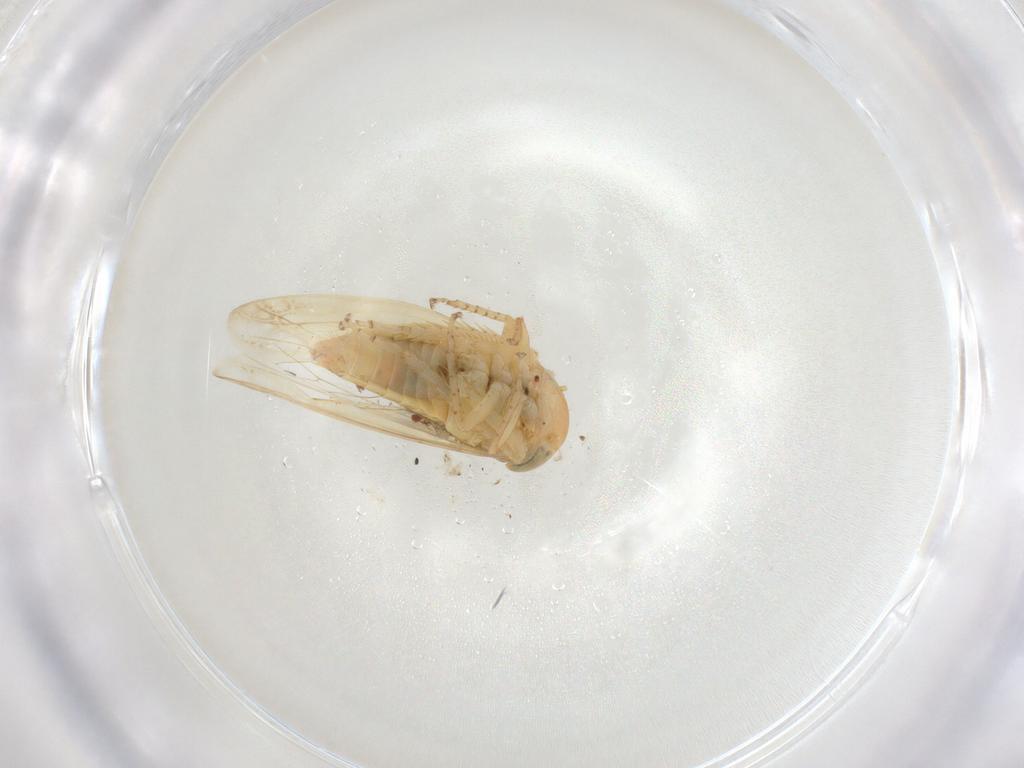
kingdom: Animalia
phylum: Arthropoda
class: Insecta
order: Hemiptera
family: Cicadellidae
